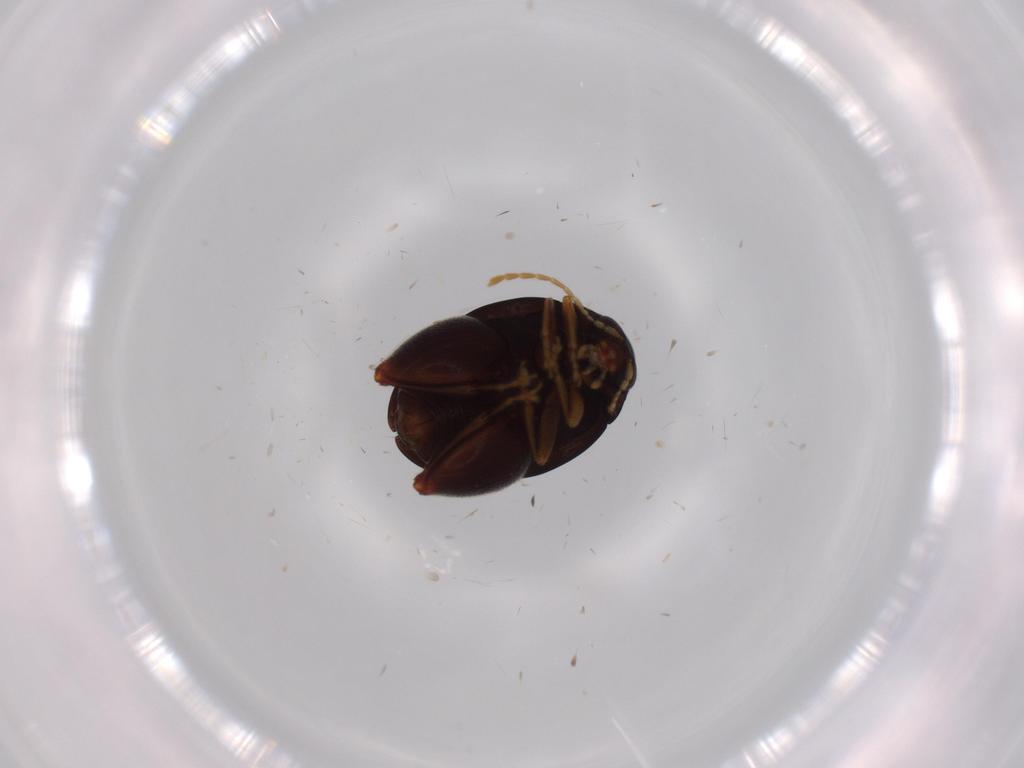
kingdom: Animalia
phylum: Arthropoda
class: Insecta
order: Coleoptera
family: Chrysomelidae
